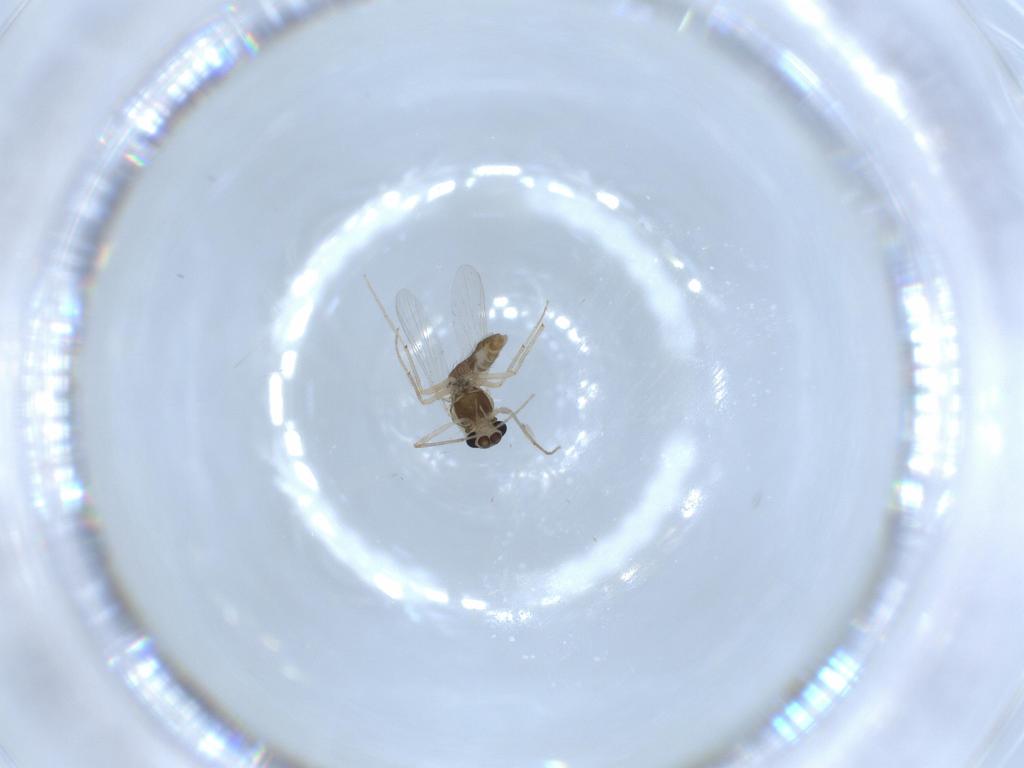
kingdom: Animalia
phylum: Arthropoda
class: Insecta
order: Diptera
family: Chironomidae
